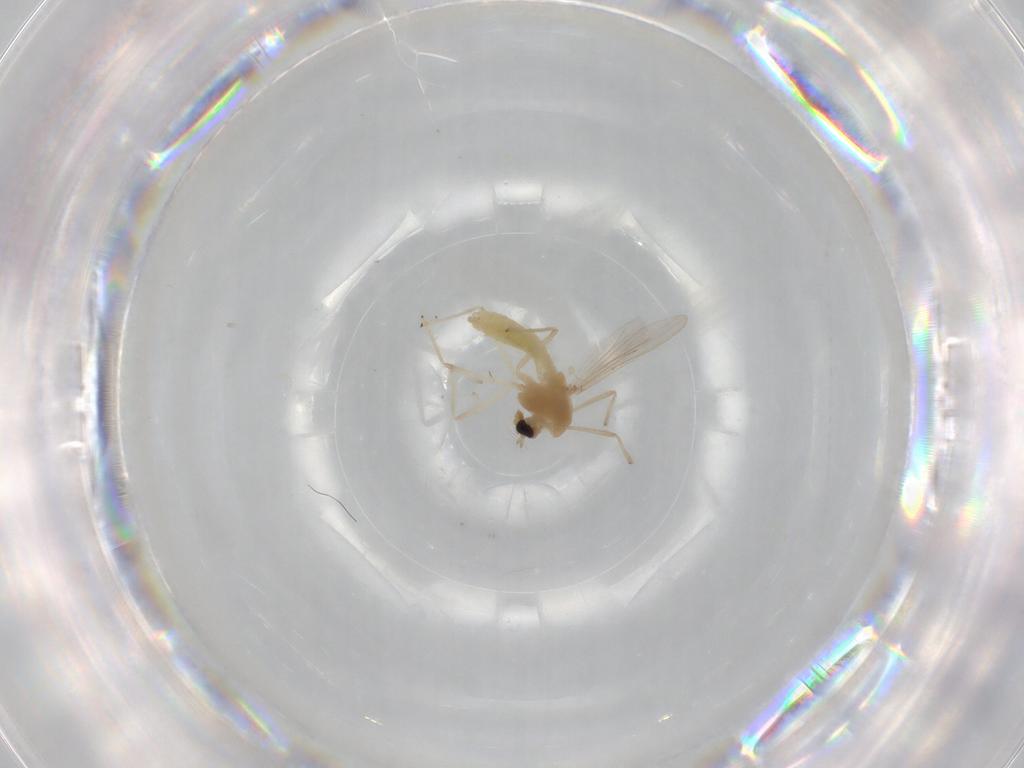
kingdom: Animalia
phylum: Arthropoda
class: Insecta
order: Diptera
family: Chironomidae
